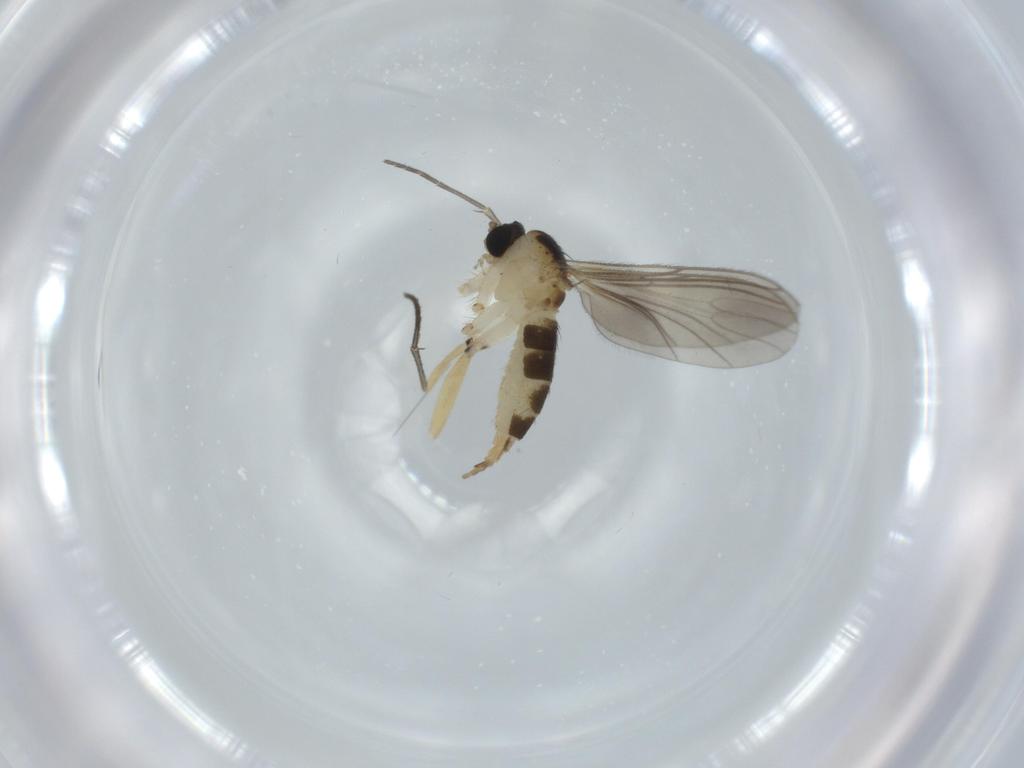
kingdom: Animalia
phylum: Arthropoda
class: Insecta
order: Diptera
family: Sciaridae
